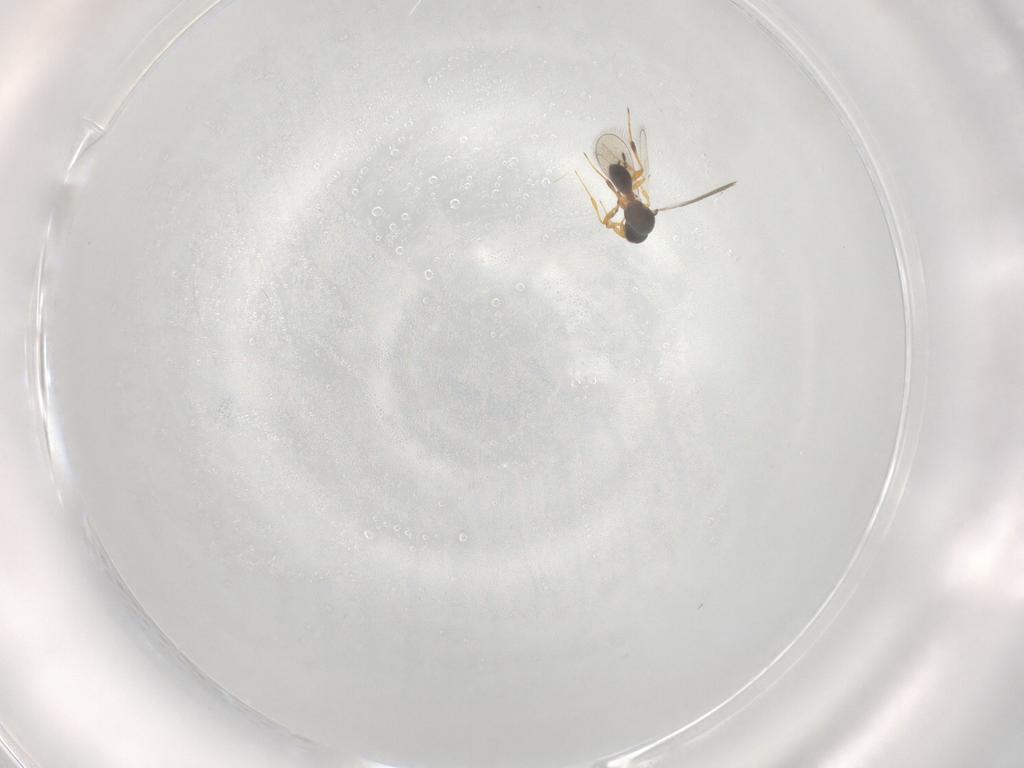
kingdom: Animalia
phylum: Arthropoda
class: Insecta
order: Hymenoptera
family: Platygastridae
